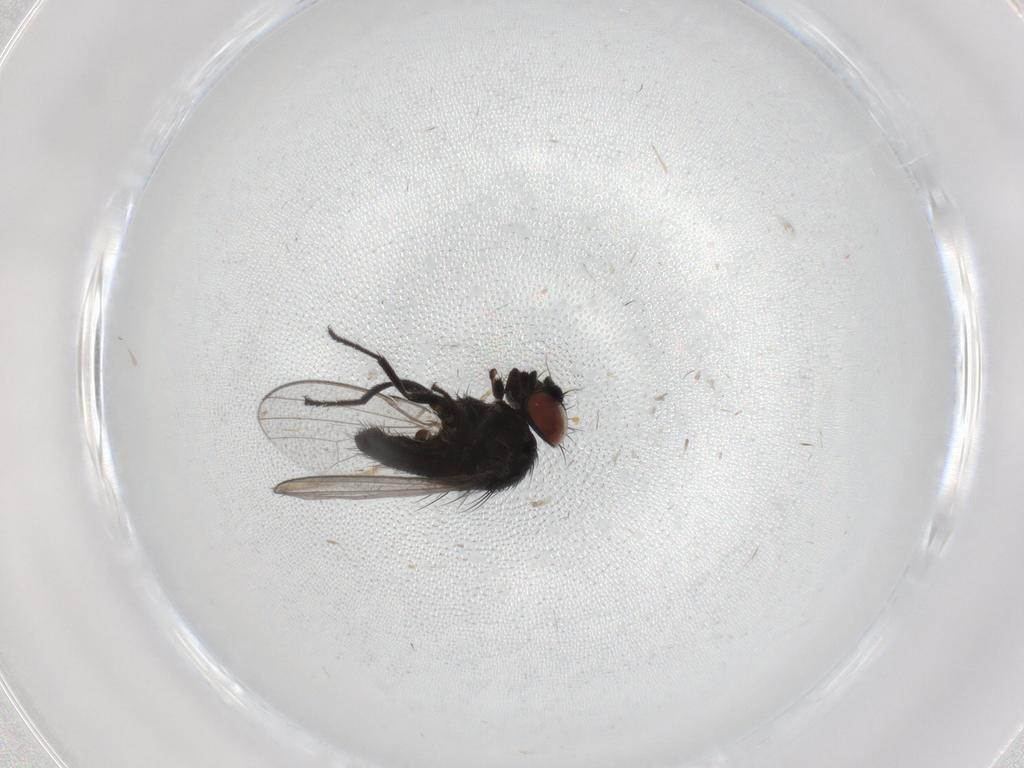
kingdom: Animalia
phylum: Arthropoda
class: Insecta
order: Diptera
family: Milichiidae
